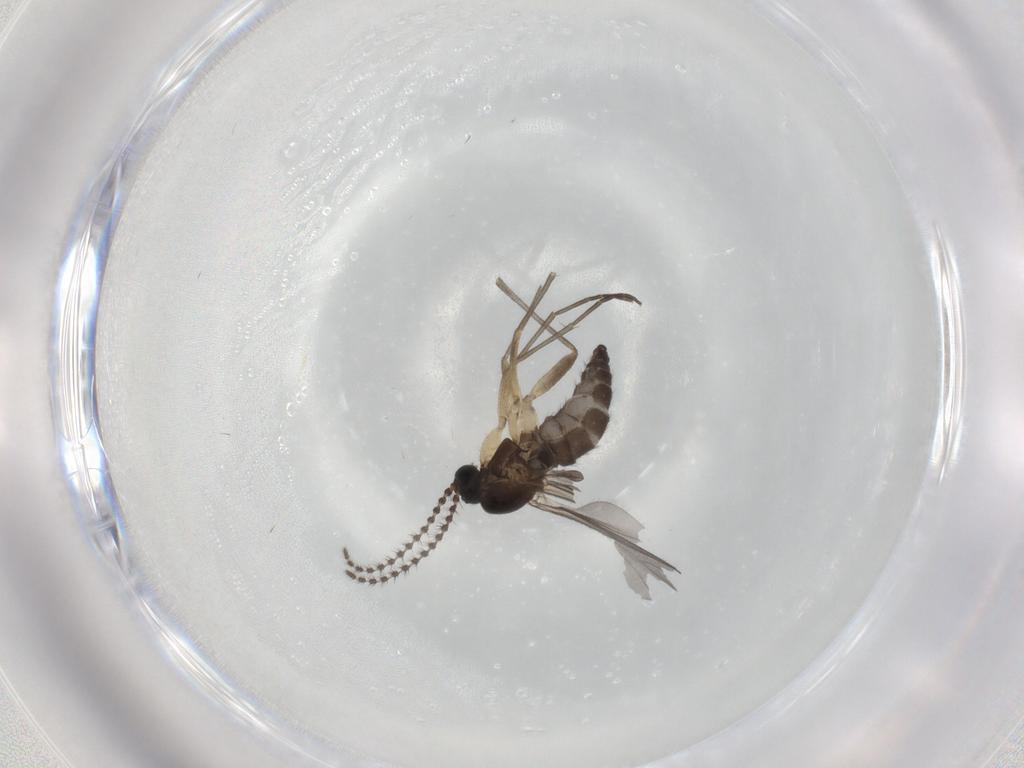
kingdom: Animalia
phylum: Arthropoda
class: Insecta
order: Diptera
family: Sciaridae
